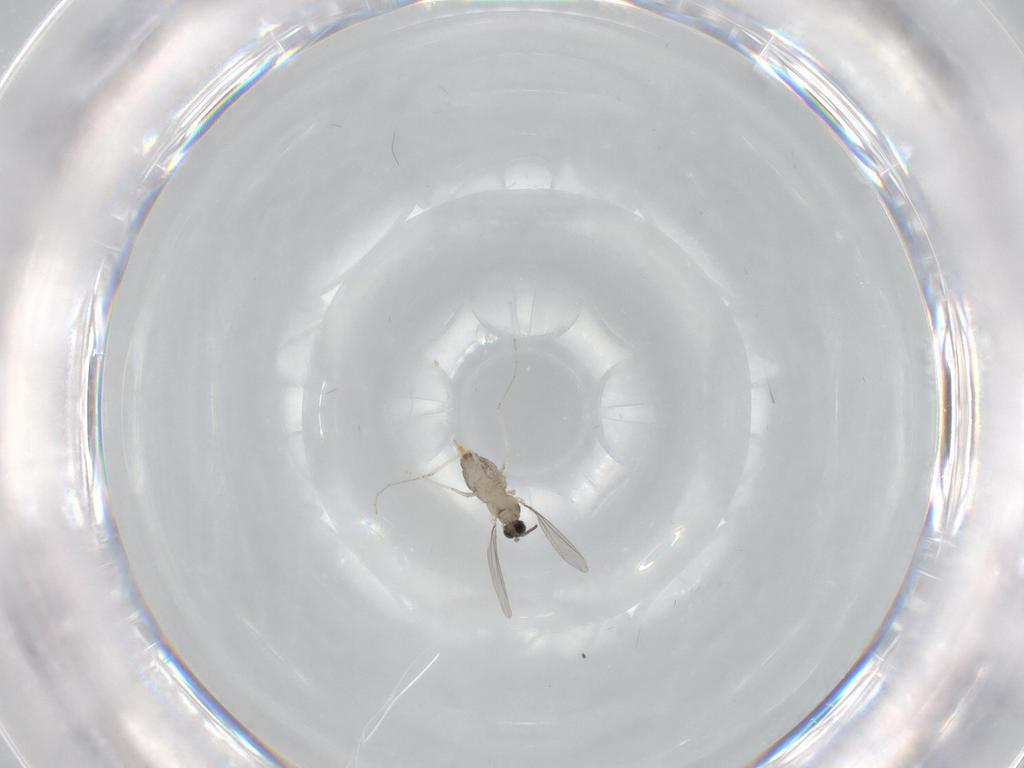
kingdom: Animalia
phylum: Arthropoda
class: Insecta
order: Diptera
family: Cecidomyiidae
